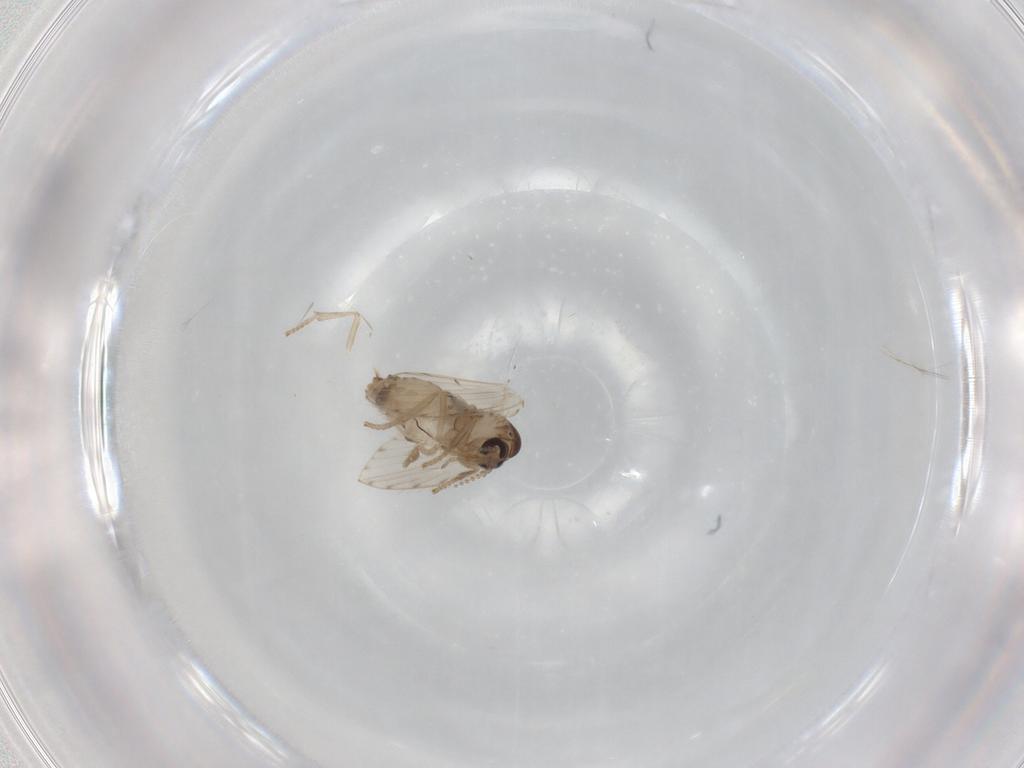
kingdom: Animalia
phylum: Arthropoda
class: Insecta
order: Diptera
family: Psychodidae
